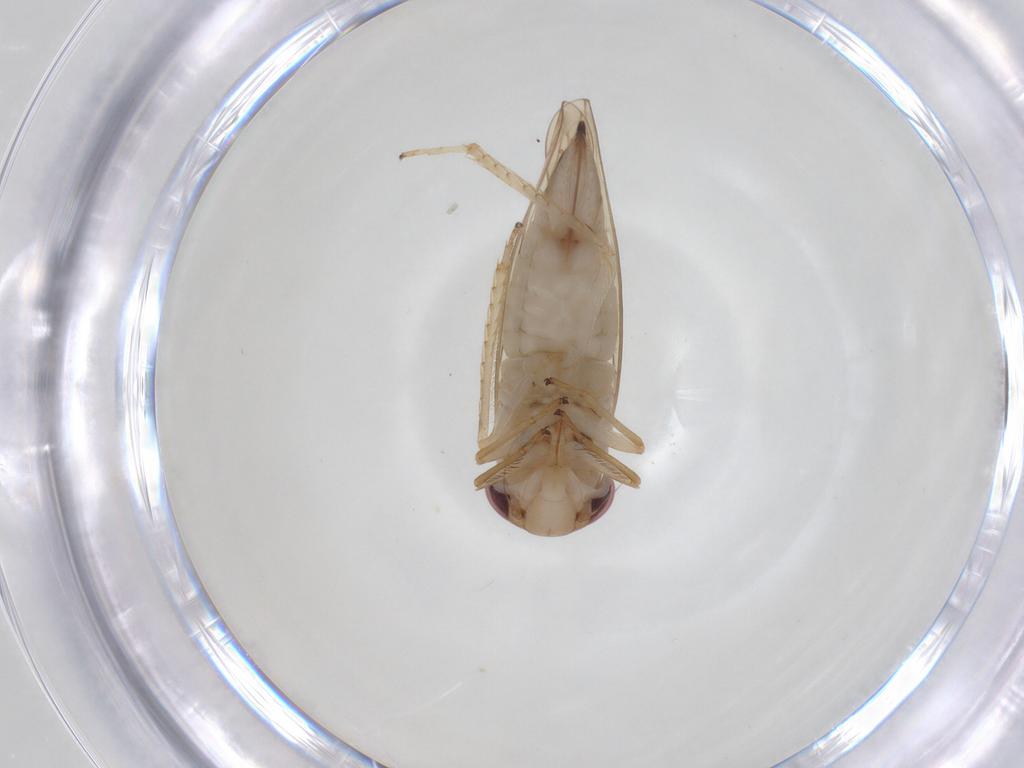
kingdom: Animalia
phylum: Arthropoda
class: Insecta
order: Hemiptera
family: Cicadellidae
